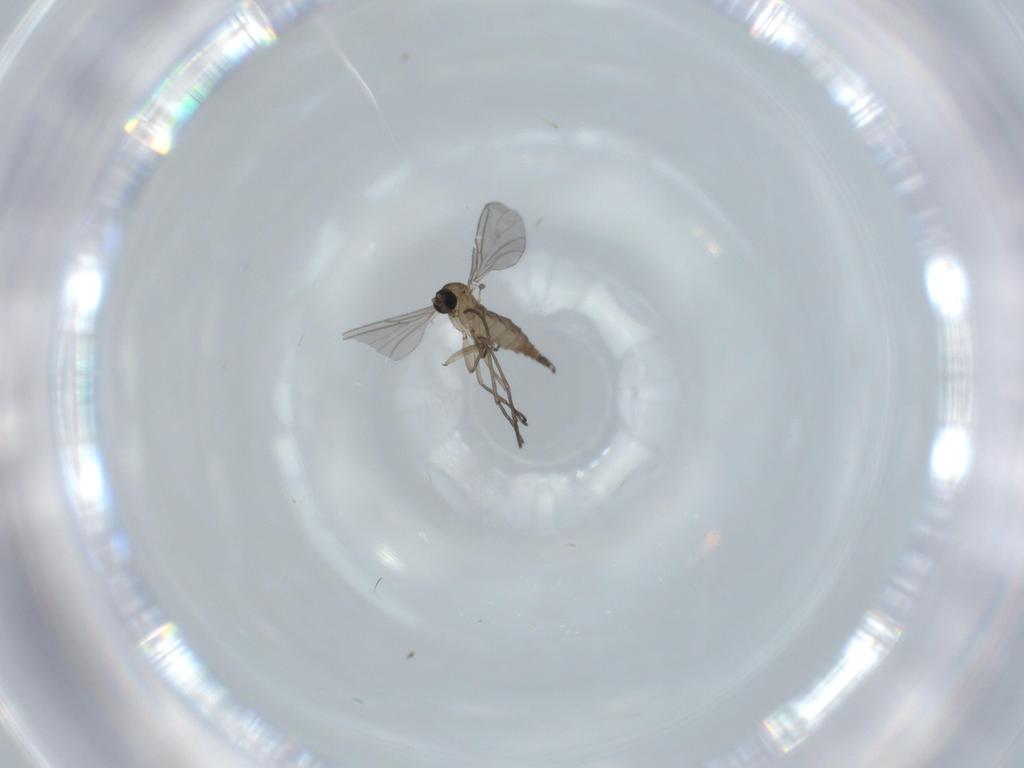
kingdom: Animalia
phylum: Arthropoda
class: Insecta
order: Diptera
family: Sciaridae
